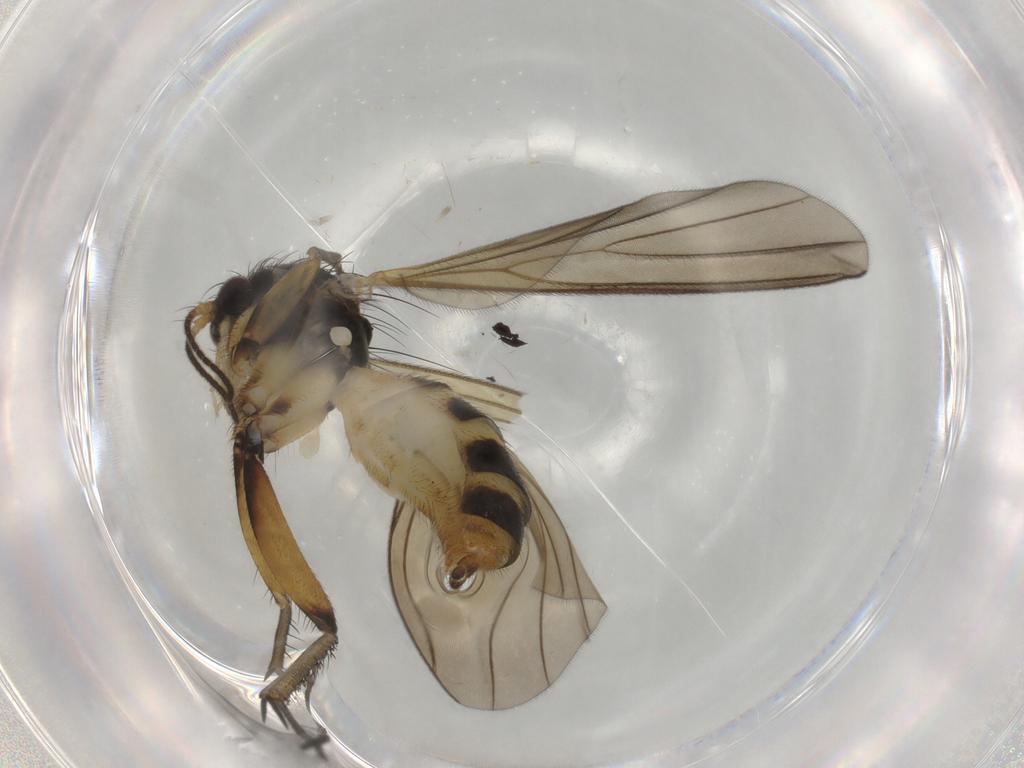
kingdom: Animalia
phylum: Arthropoda
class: Insecta
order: Diptera
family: Mycetophilidae
